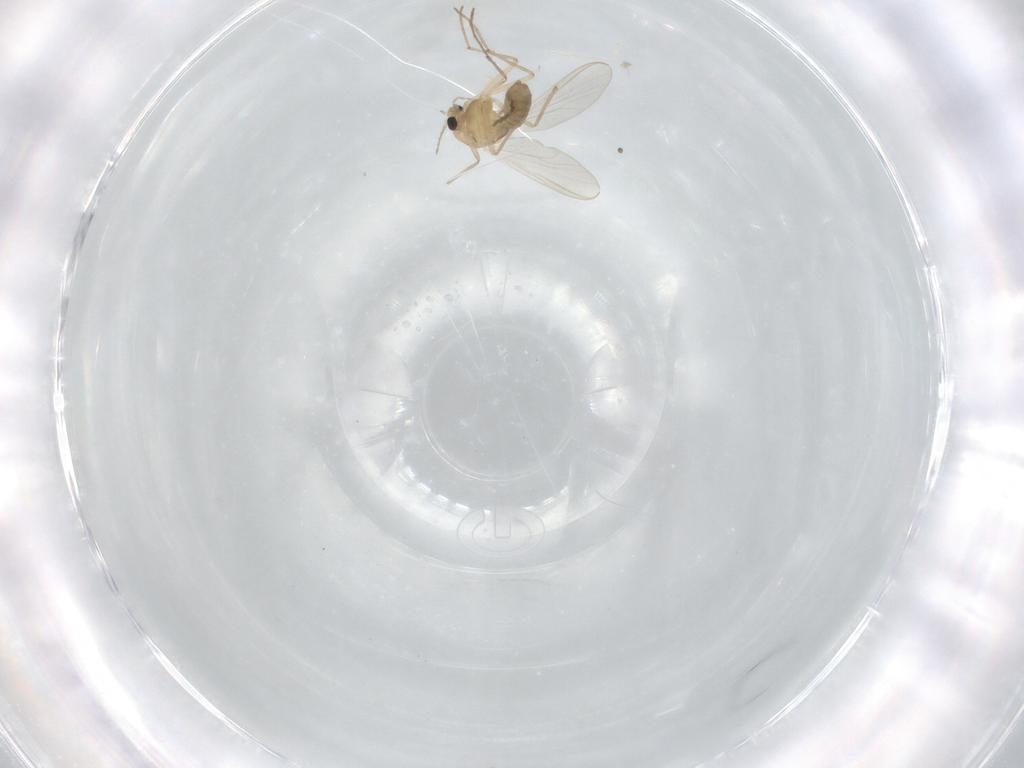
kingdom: Animalia
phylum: Arthropoda
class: Insecta
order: Diptera
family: Chironomidae
